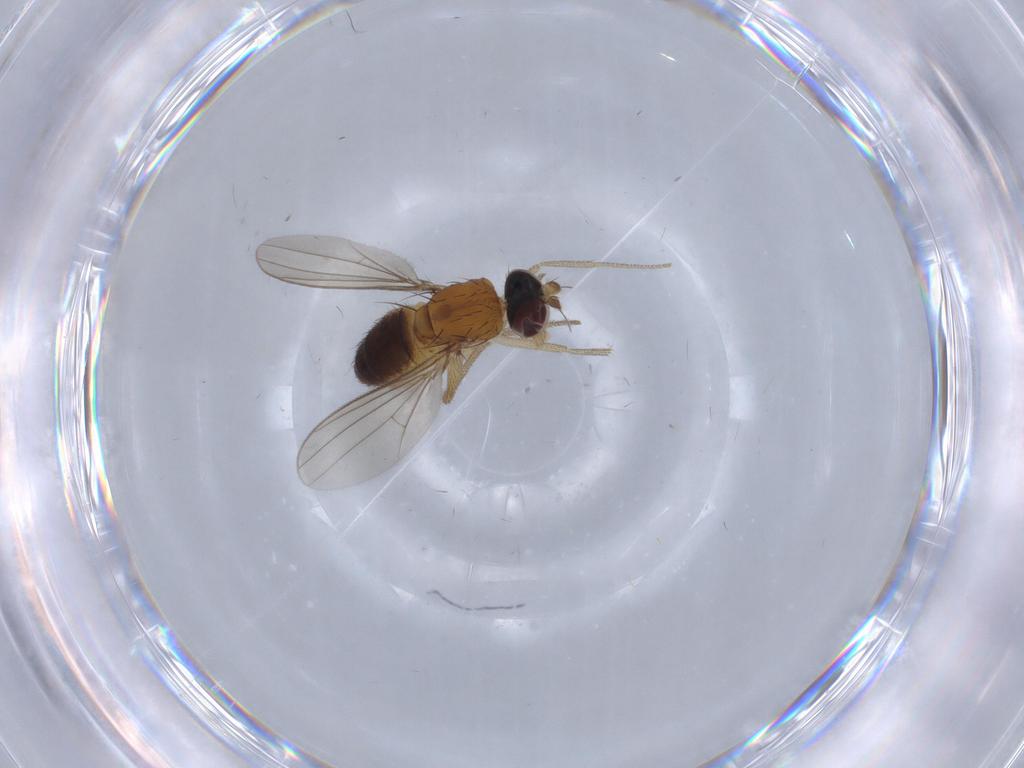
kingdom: Animalia
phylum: Arthropoda
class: Insecta
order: Diptera
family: Dolichopodidae
